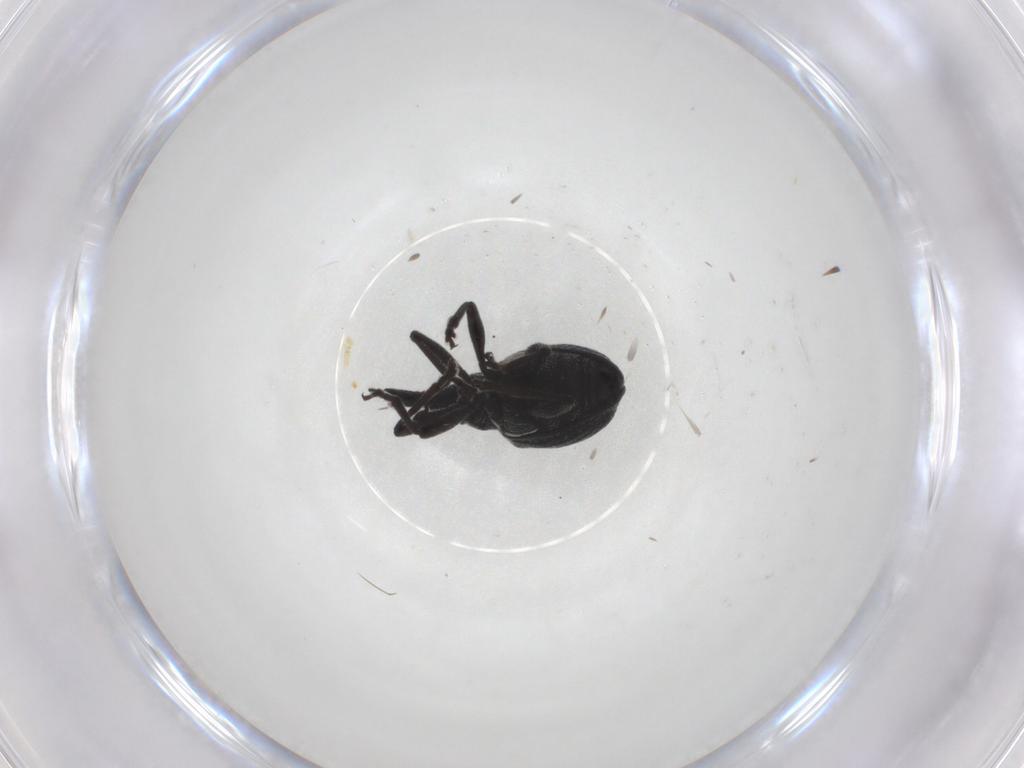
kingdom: Animalia
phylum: Arthropoda
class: Insecta
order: Coleoptera
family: Brentidae
